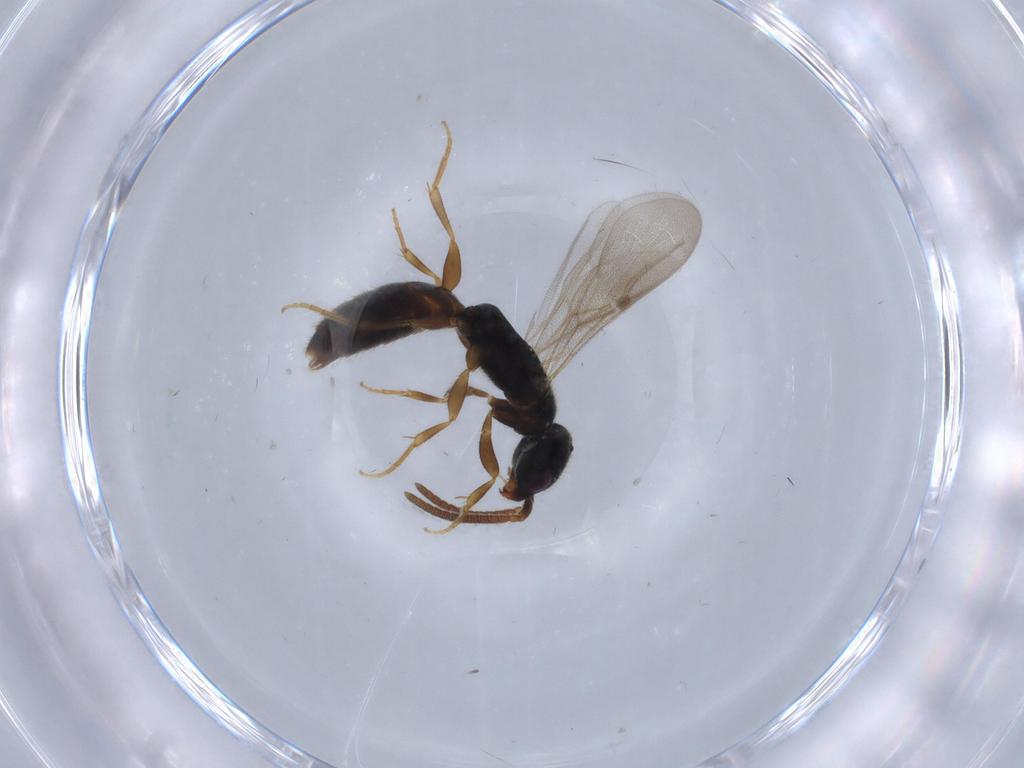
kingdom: Animalia
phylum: Arthropoda
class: Insecta
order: Hymenoptera
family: Bethylidae
